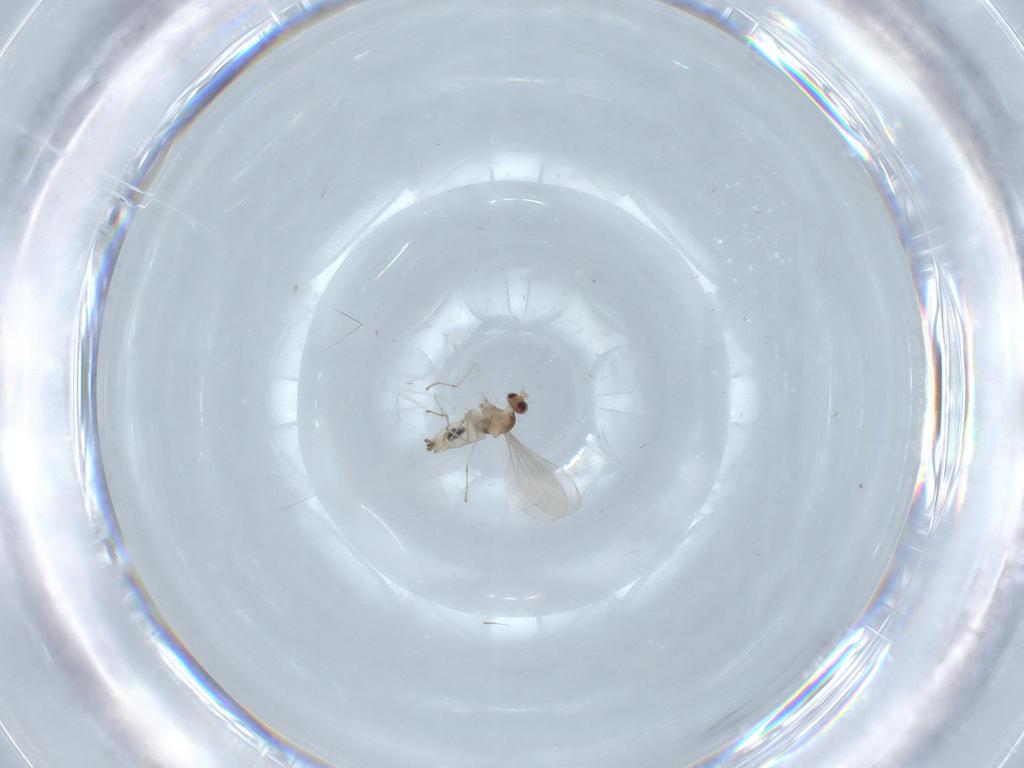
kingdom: Animalia
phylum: Arthropoda
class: Insecta
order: Diptera
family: Cecidomyiidae
